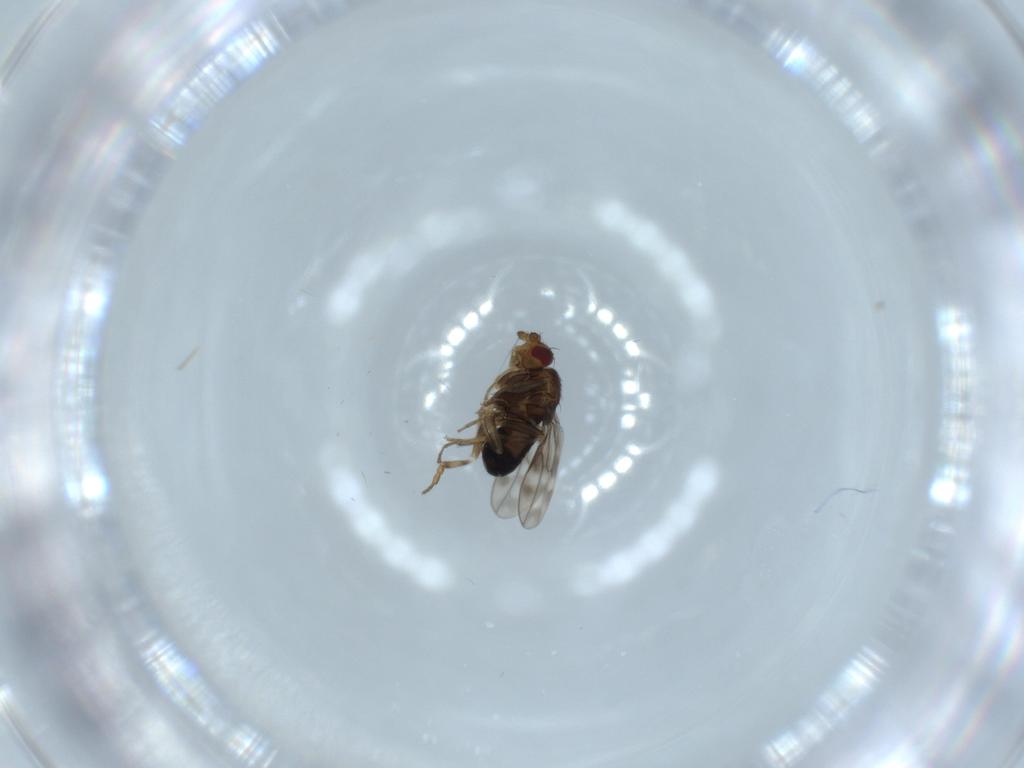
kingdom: Animalia
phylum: Arthropoda
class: Insecta
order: Diptera
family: Sphaeroceridae
